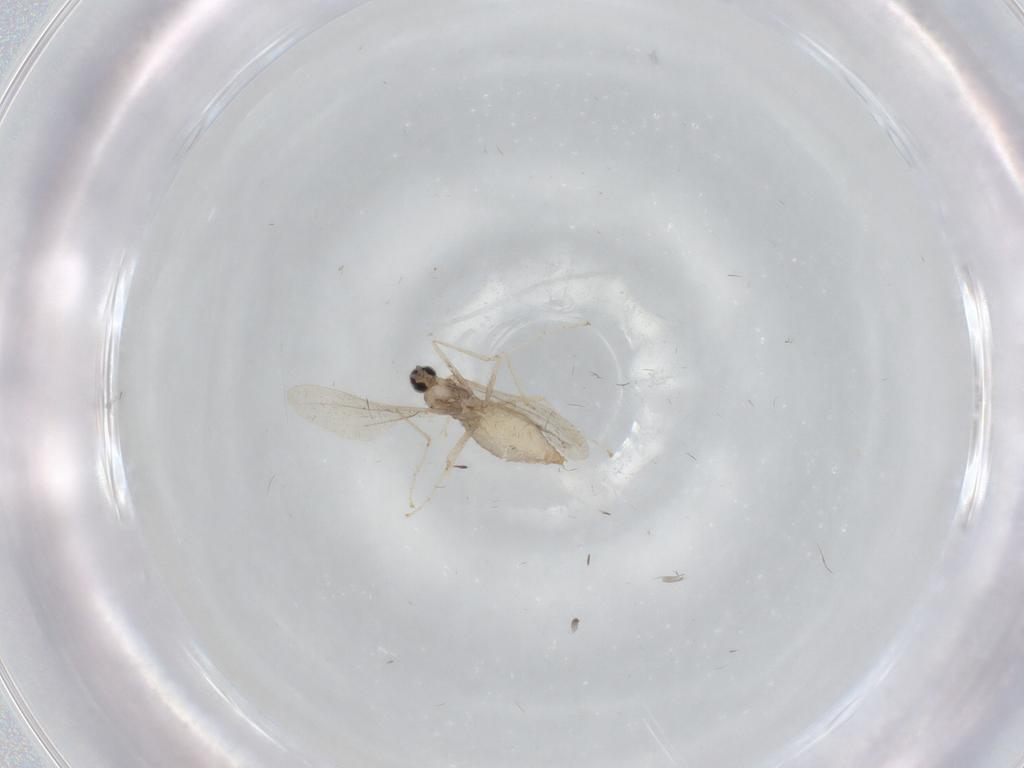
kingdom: Animalia
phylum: Arthropoda
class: Insecta
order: Diptera
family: Cecidomyiidae
